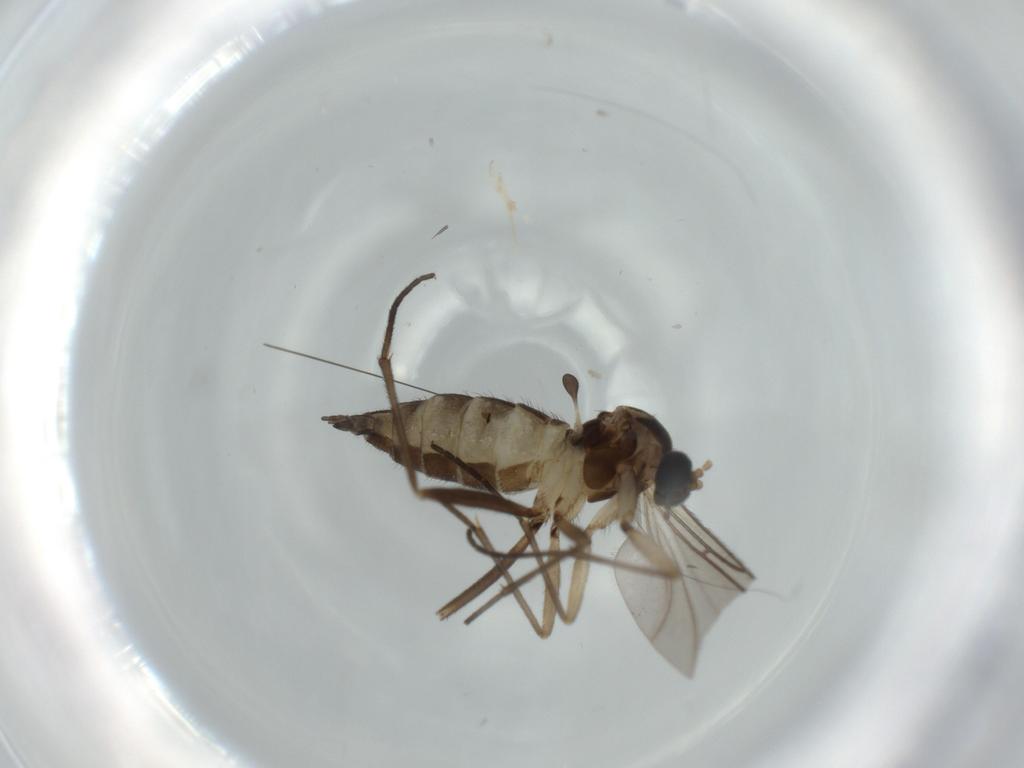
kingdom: Animalia
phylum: Arthropoda
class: Insecta
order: Diptera
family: Sciaridae
